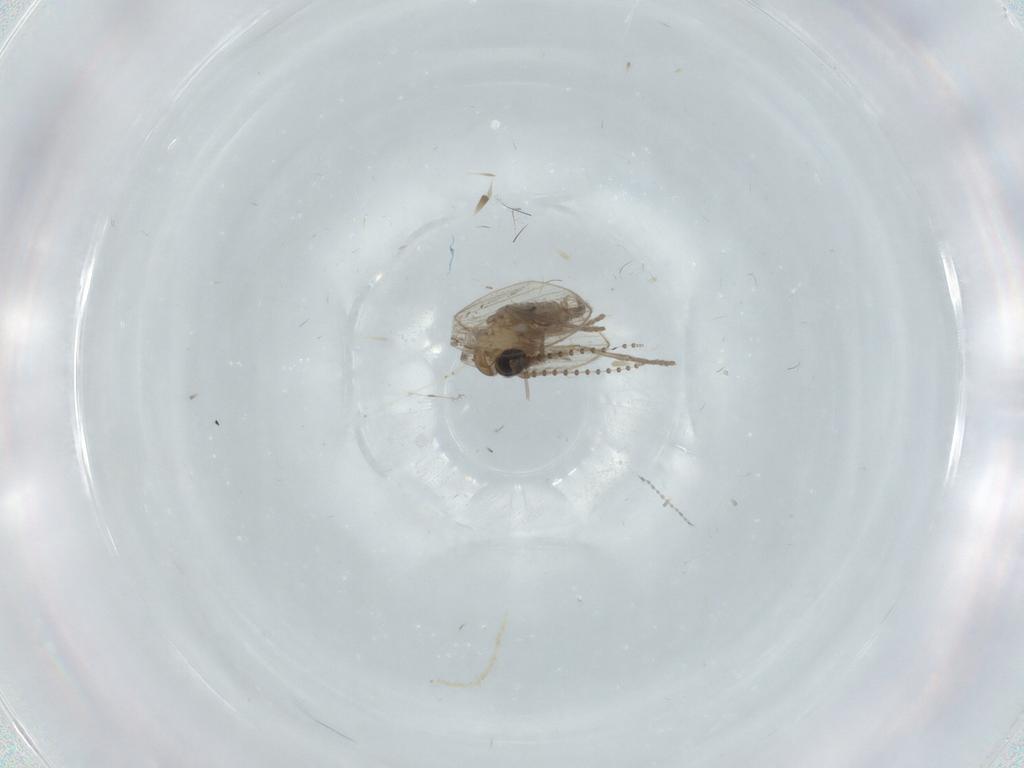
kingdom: Animalia
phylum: Arthropoda
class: Insecta
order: Diptera
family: Psychodidae
